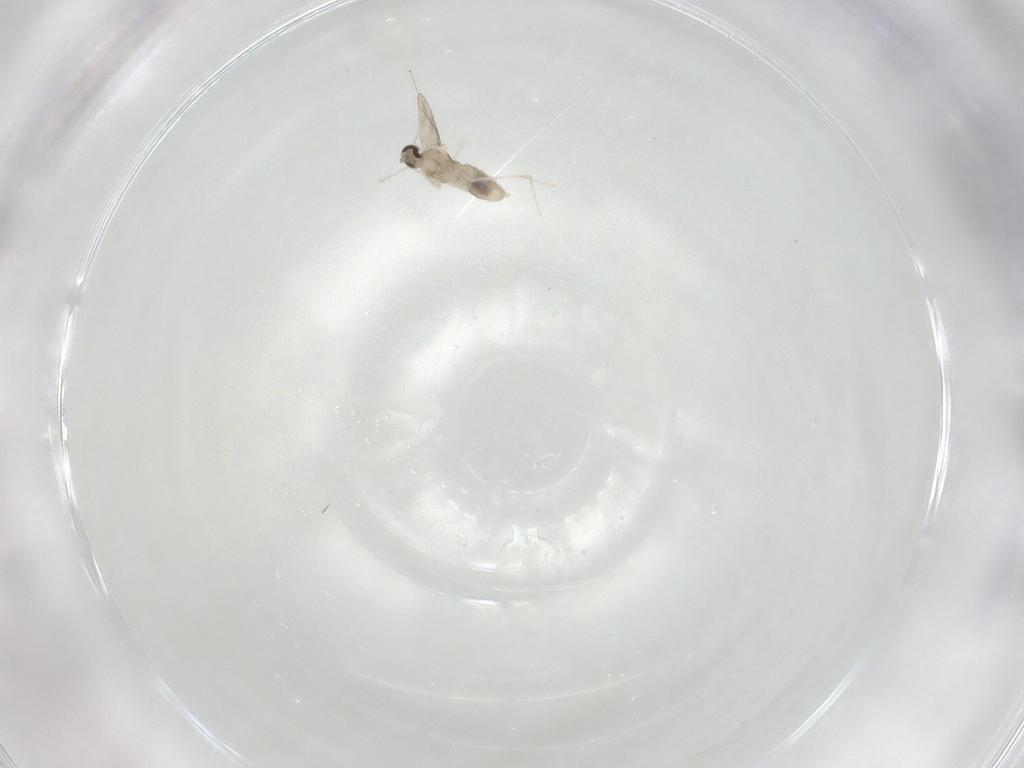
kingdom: Animalia
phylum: Arthropoda
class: Insecta
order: Diptera
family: Cecidomyiidae
